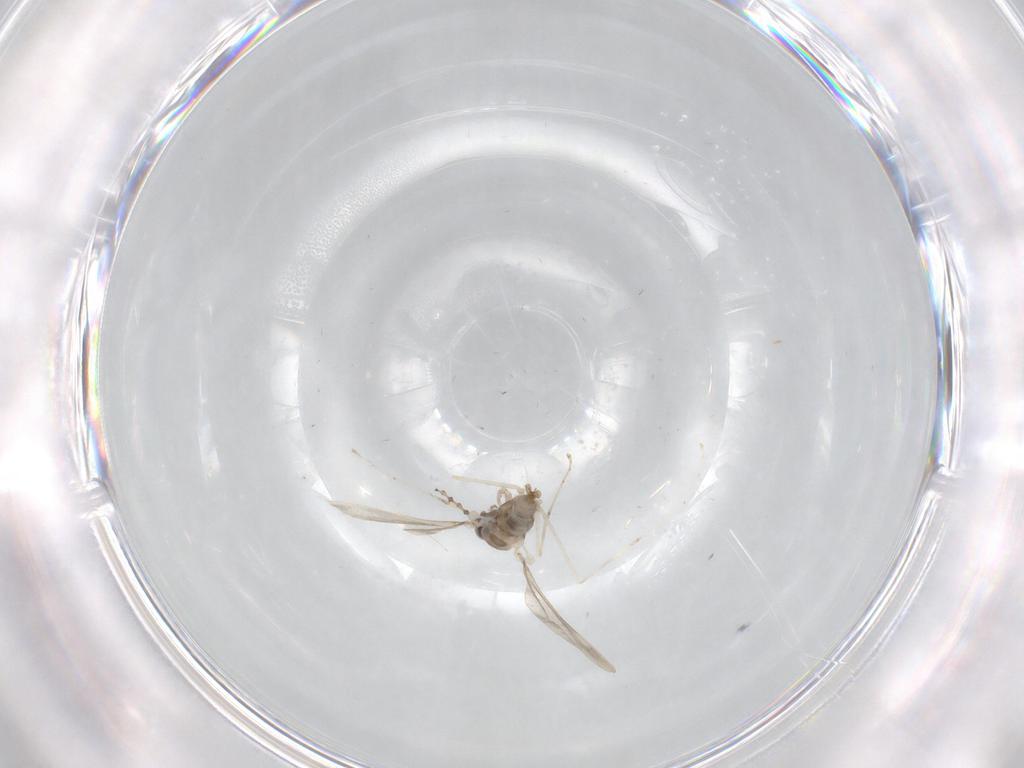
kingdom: Animalia
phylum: Arthropoda
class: Insecta
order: Diptera
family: Cecidomyiidae
